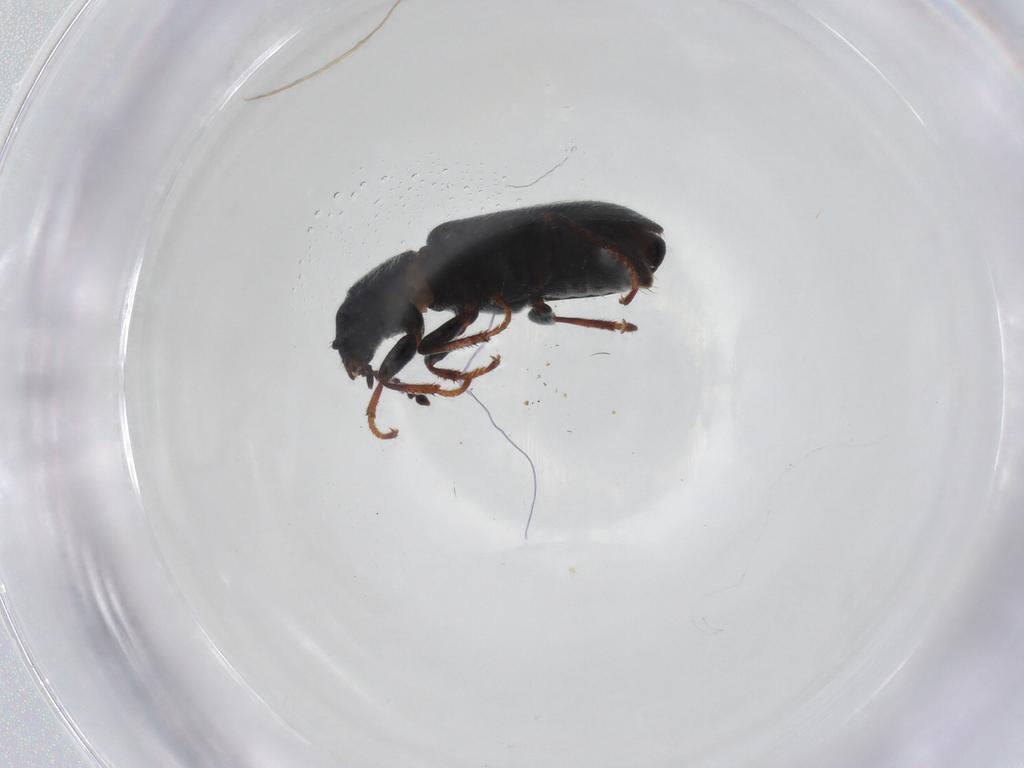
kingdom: Animalia
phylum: Arthropoda
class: Insecta
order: Coleoptera
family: Melyridae
